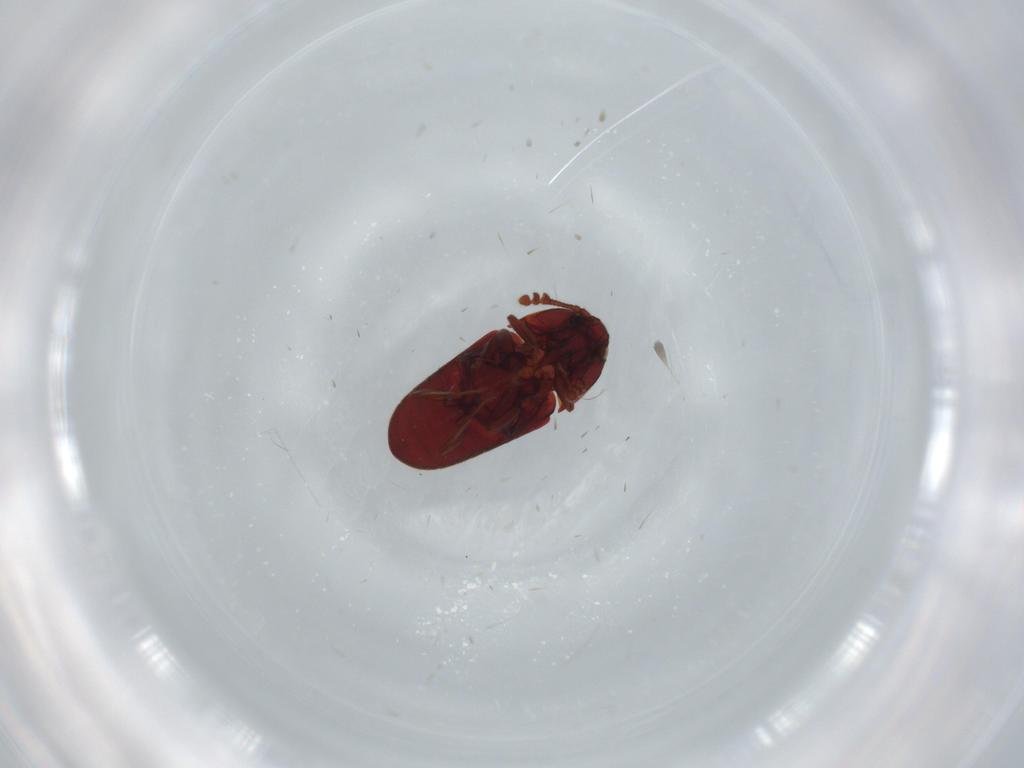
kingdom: Animalia
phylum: Arthropoda
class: Insecta
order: Coleoptera
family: Throscidae
